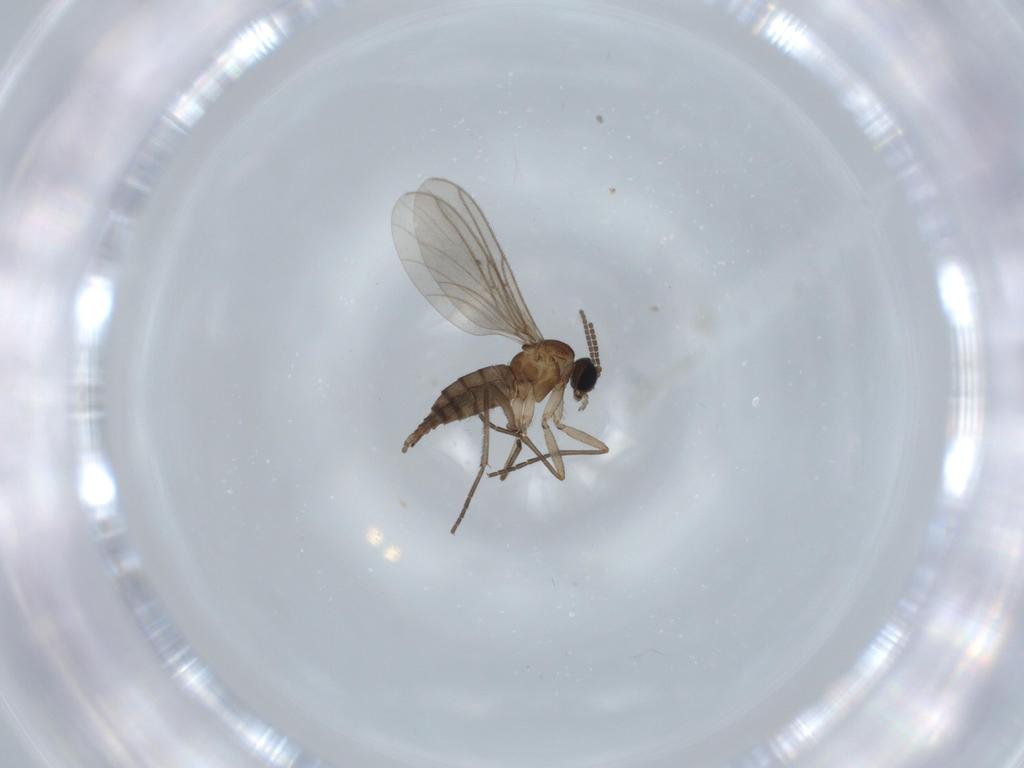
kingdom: Animalia
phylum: Arthropoda
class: Insecta
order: Diptera
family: Sciaridae
